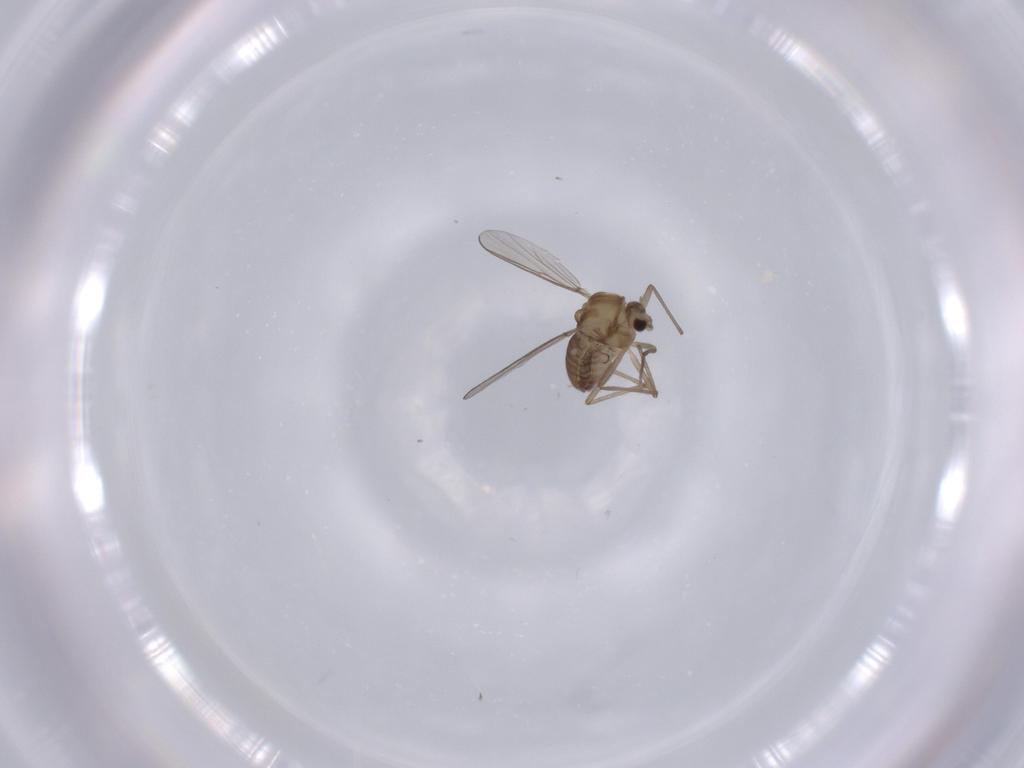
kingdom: Animalia
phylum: Arthropoda
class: Insecta
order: Diptera
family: Chironomidae
